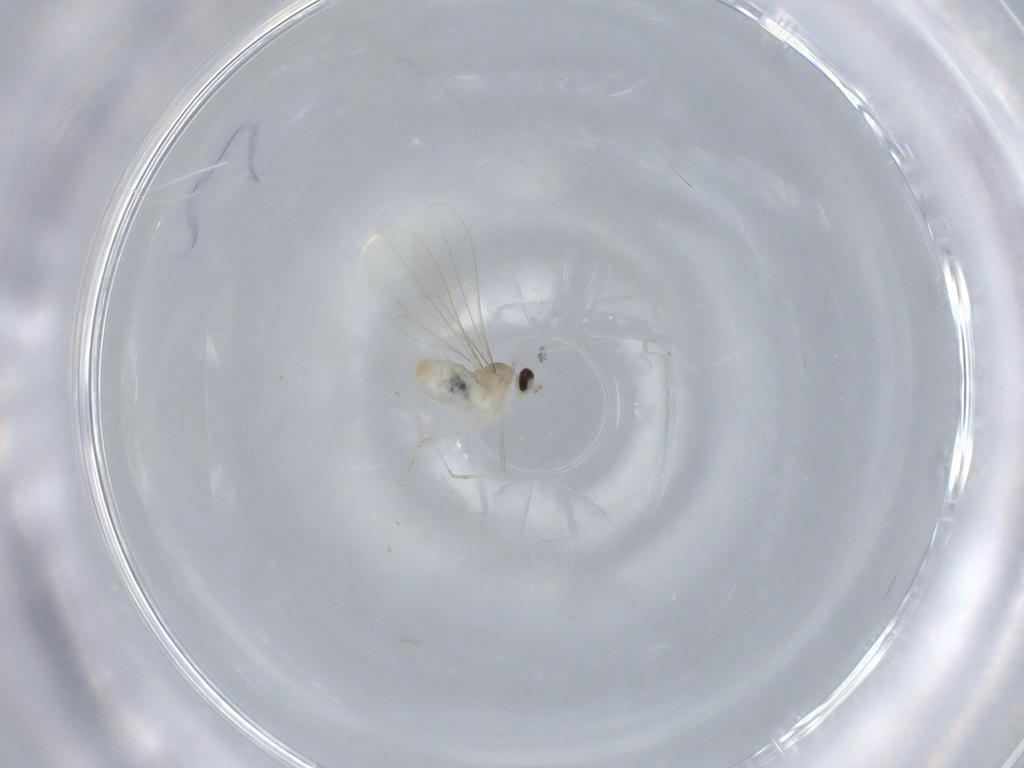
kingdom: Animalia
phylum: Arthropoda
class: Insecta
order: Diptera
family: Cecidomyiidae
